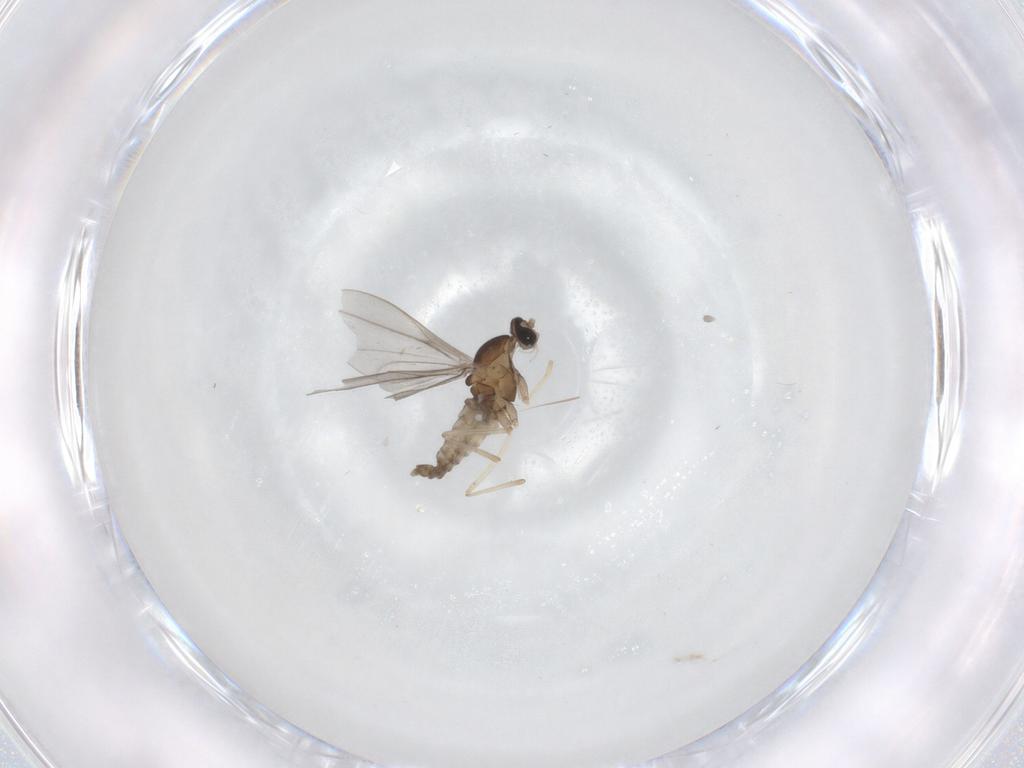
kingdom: Animalia
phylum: Arthropoda
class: Insecta
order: Diptera
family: Cecidomyiidae
